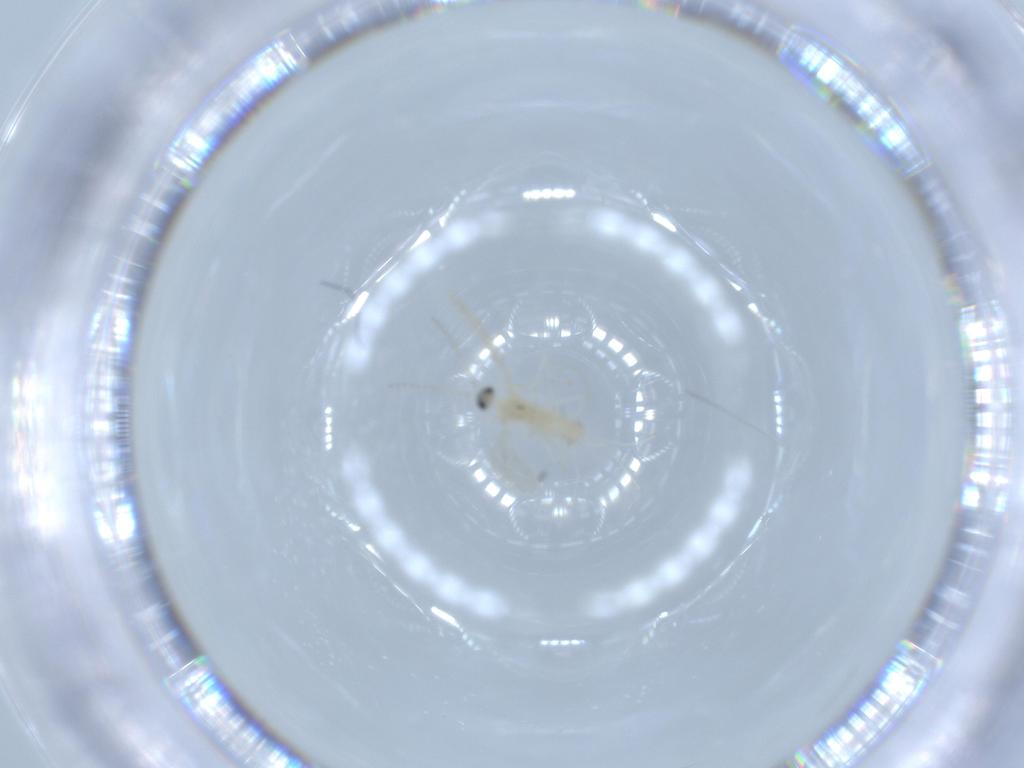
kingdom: Animalia
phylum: Arthropoda
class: Insecta
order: Diptera
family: Cecidomyiidae
